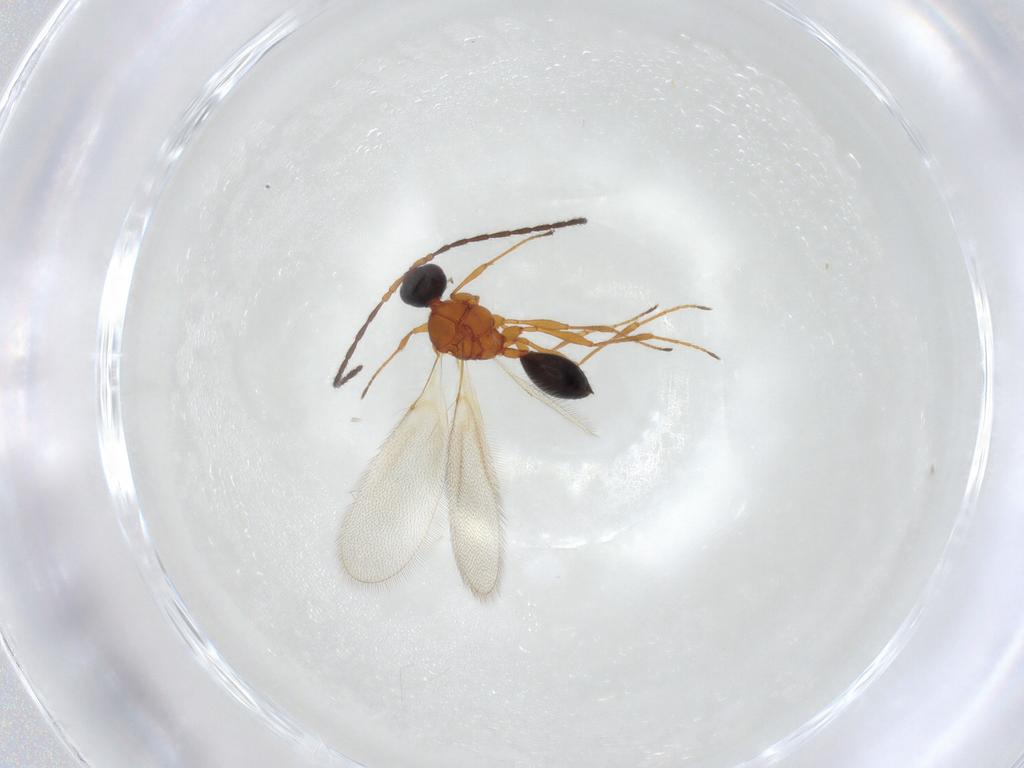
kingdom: Animalia
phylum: Arthropoda
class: Insecta
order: Hymenoptera
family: Diapriidae
